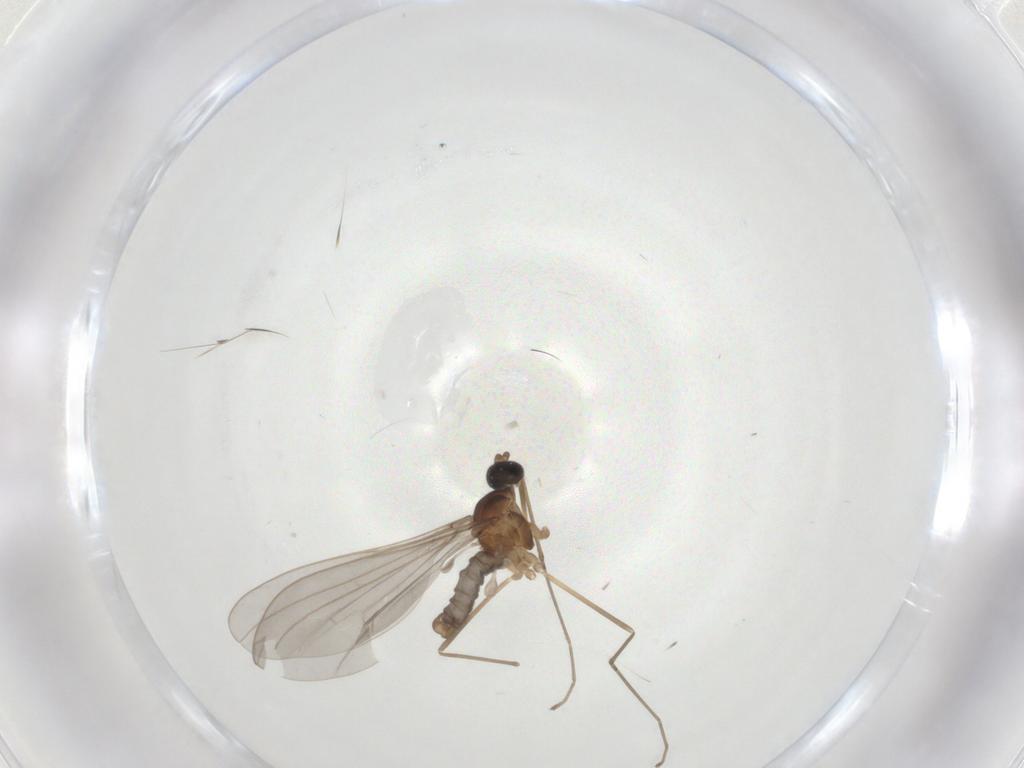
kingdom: Animalia
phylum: Arthropoda
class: Insecta
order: Diptera
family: Cecidomyiidae
